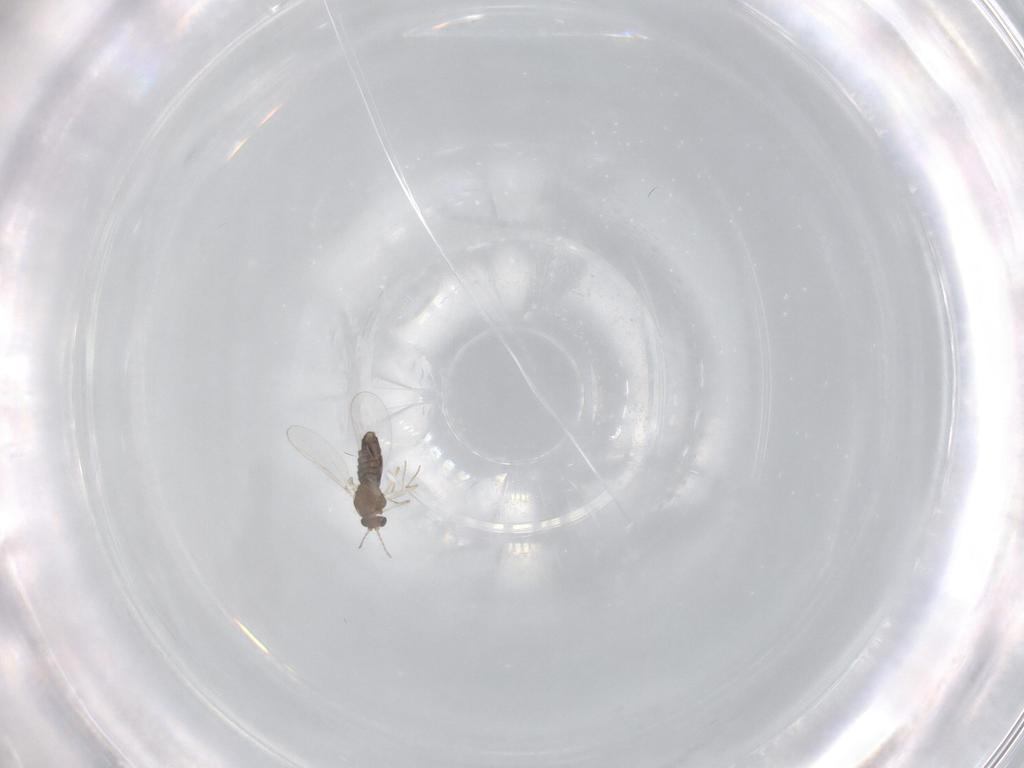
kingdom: Animalia
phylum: Arthropoda
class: Insecta
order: Diptera
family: Chironomidae
